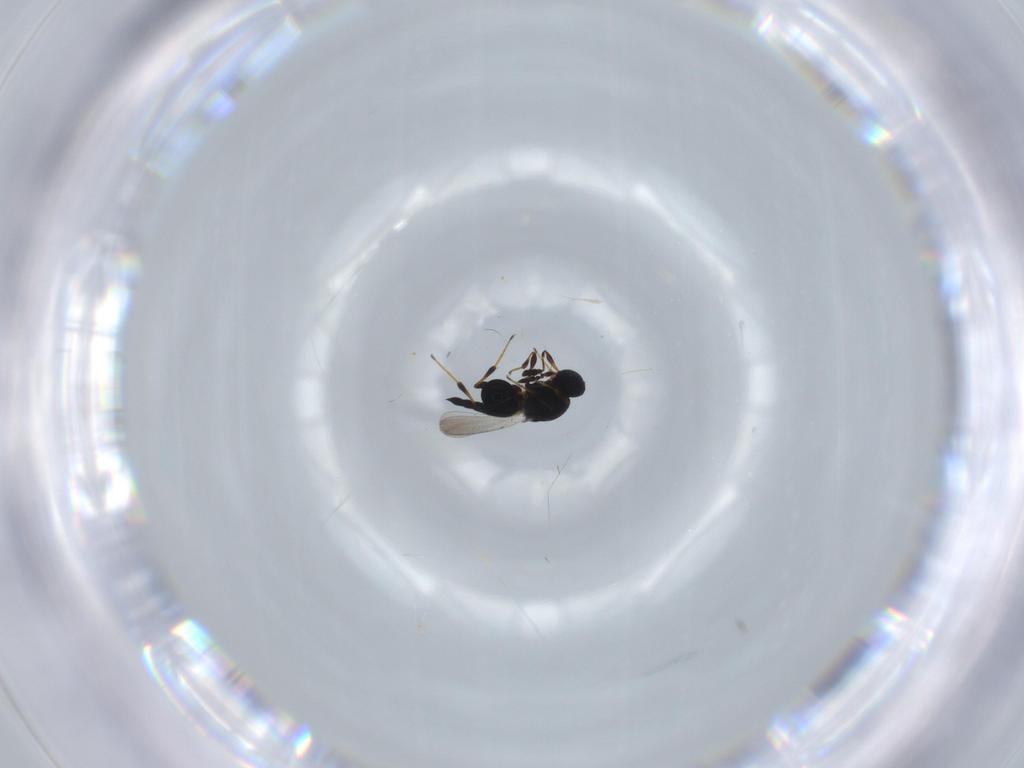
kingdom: Animalia
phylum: Arthropoda
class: Insecta
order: Hymenoptera
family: Platygastridae
